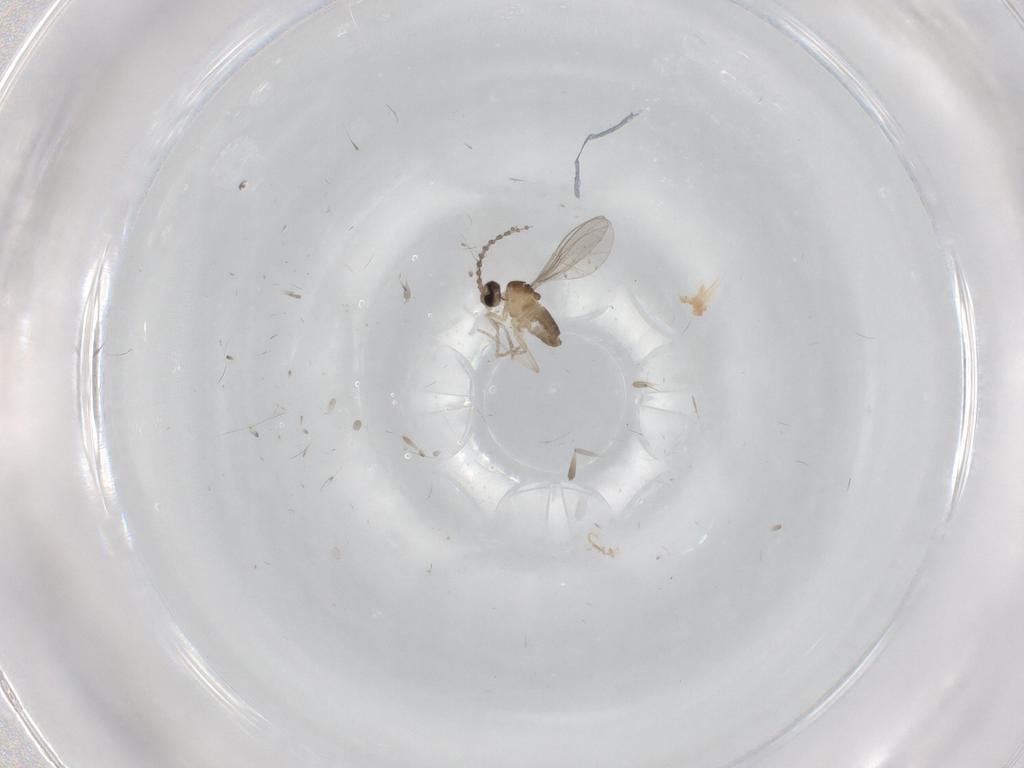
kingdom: Animalia
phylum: Arthropoda
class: Insecta
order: Diptera
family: Cecidomyiidae
